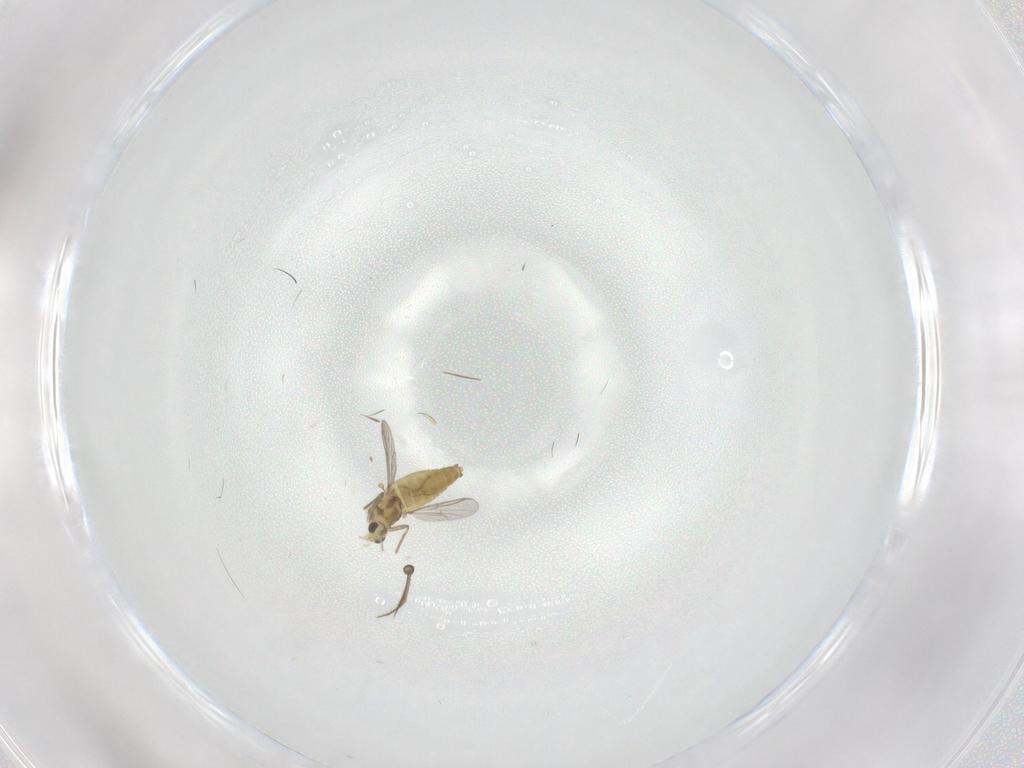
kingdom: Animalia
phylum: Arthropoda
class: Insecta
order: Diptera
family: Chironomidae
